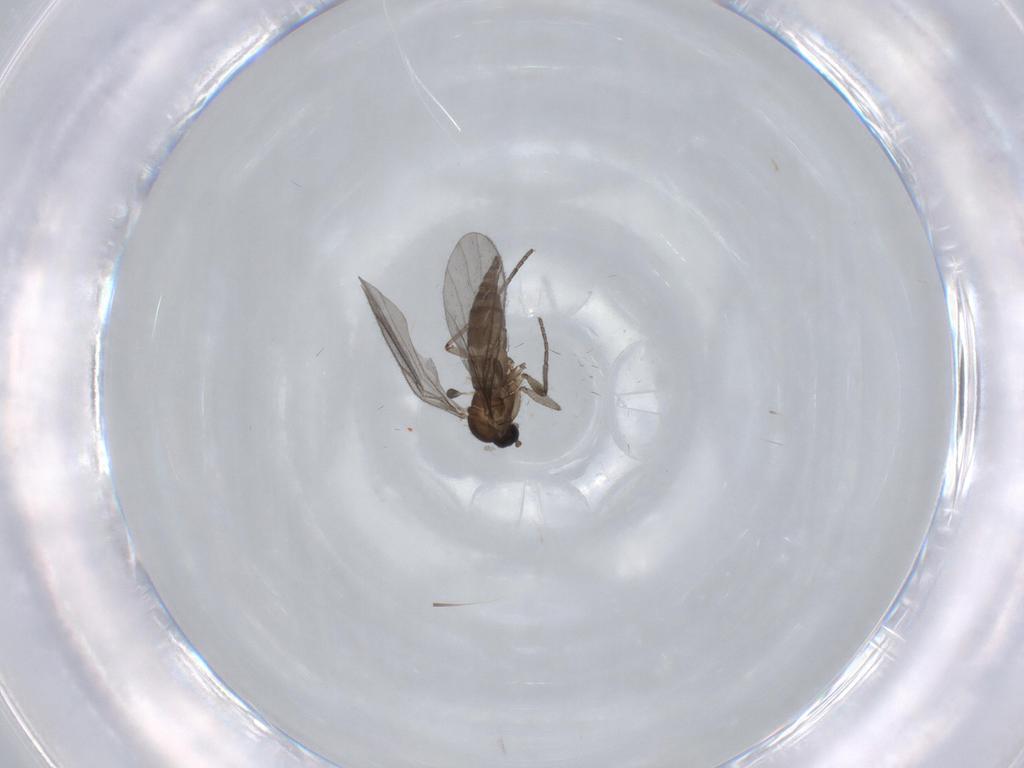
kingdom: Animalia
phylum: Arthropoda
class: Insecta
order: Diptera
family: Sciaridae
